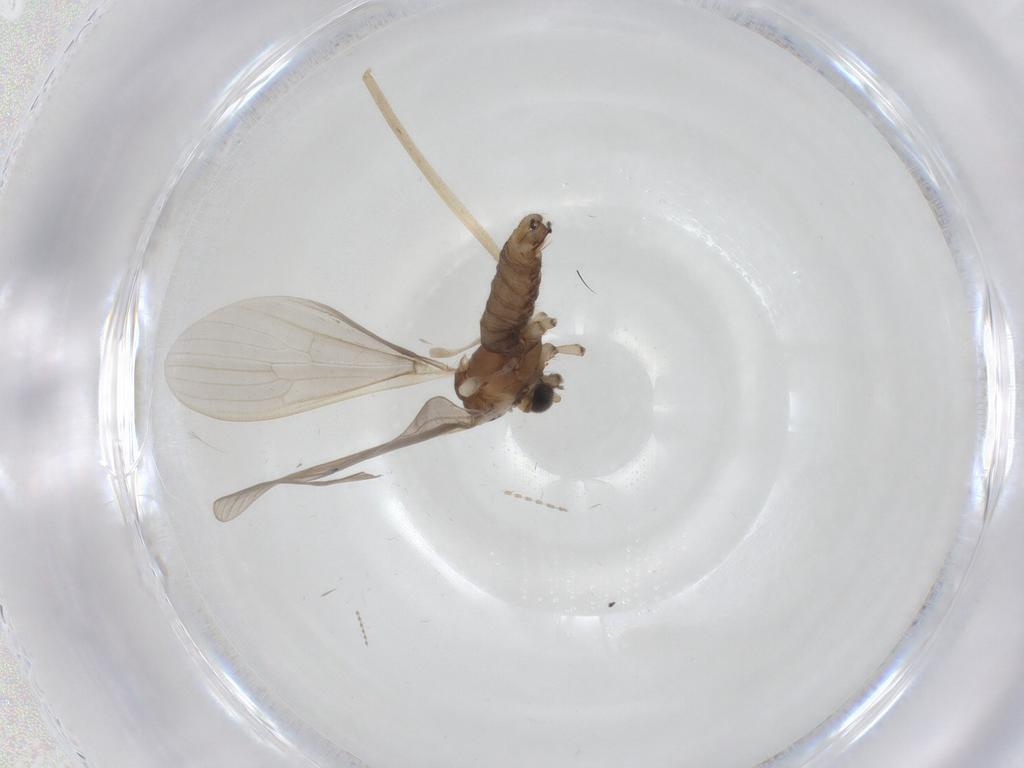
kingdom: Animalia
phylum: Arthropoda
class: Insecta
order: Diptera
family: Limoniidae
